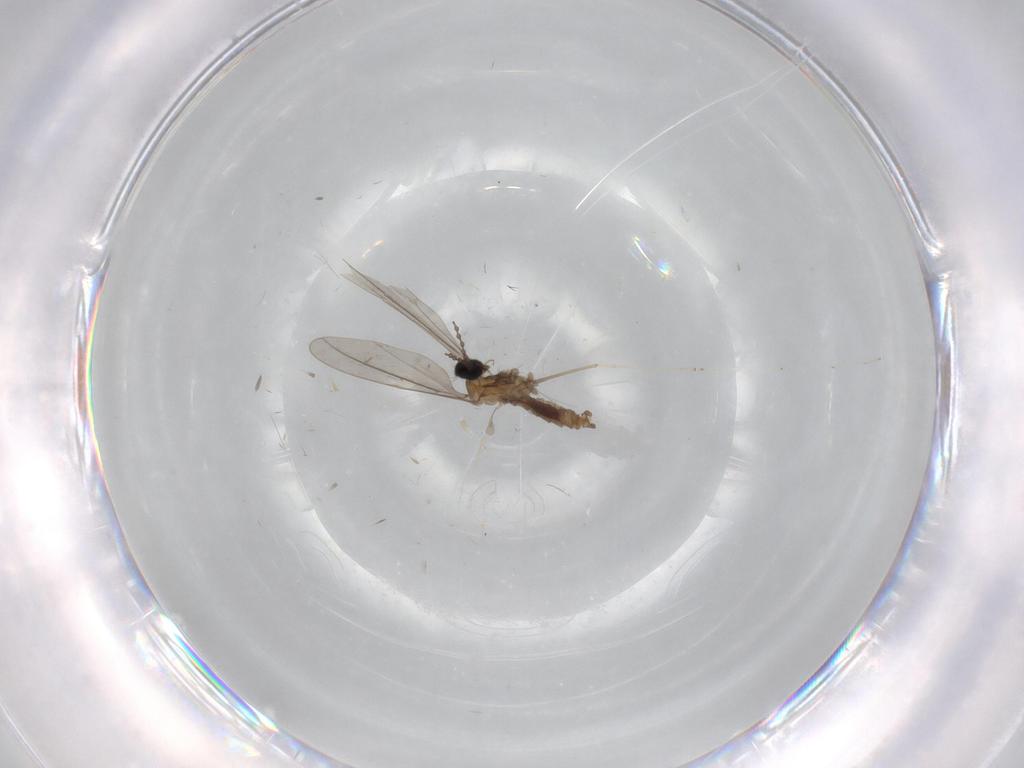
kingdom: Animalia
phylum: Arthropoda
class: Insecta
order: Diptera
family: Cecidomyiidae
